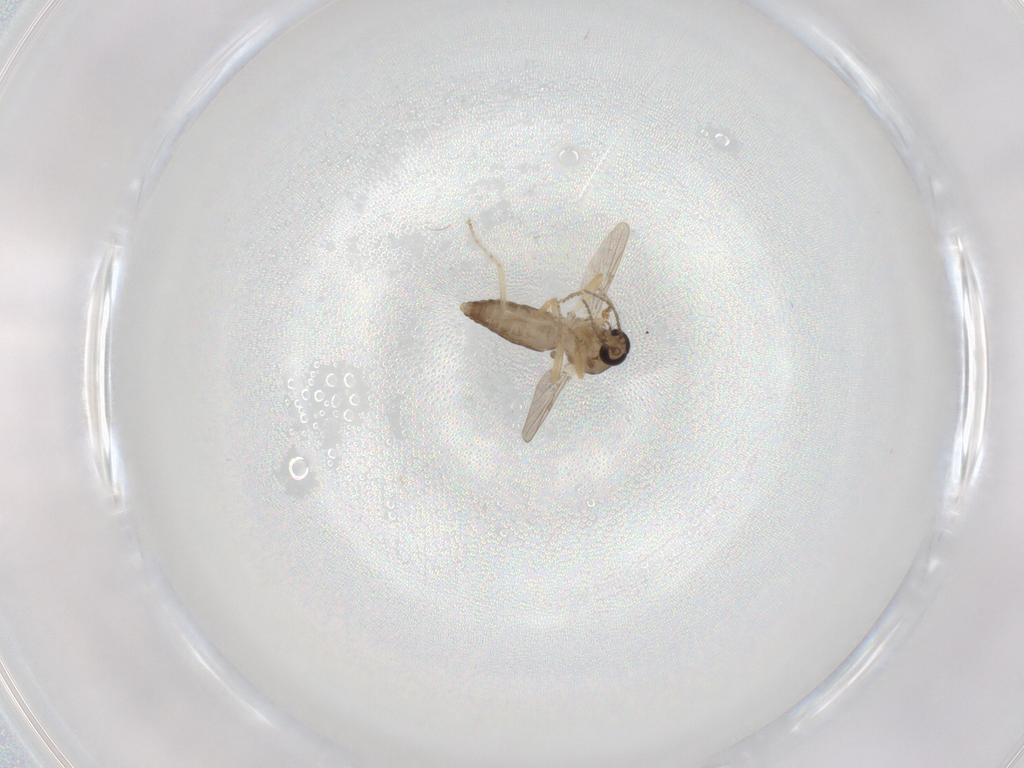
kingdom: Animalia
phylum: Arthropoda
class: Insecta
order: Diptera
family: Ceratopogonidae
